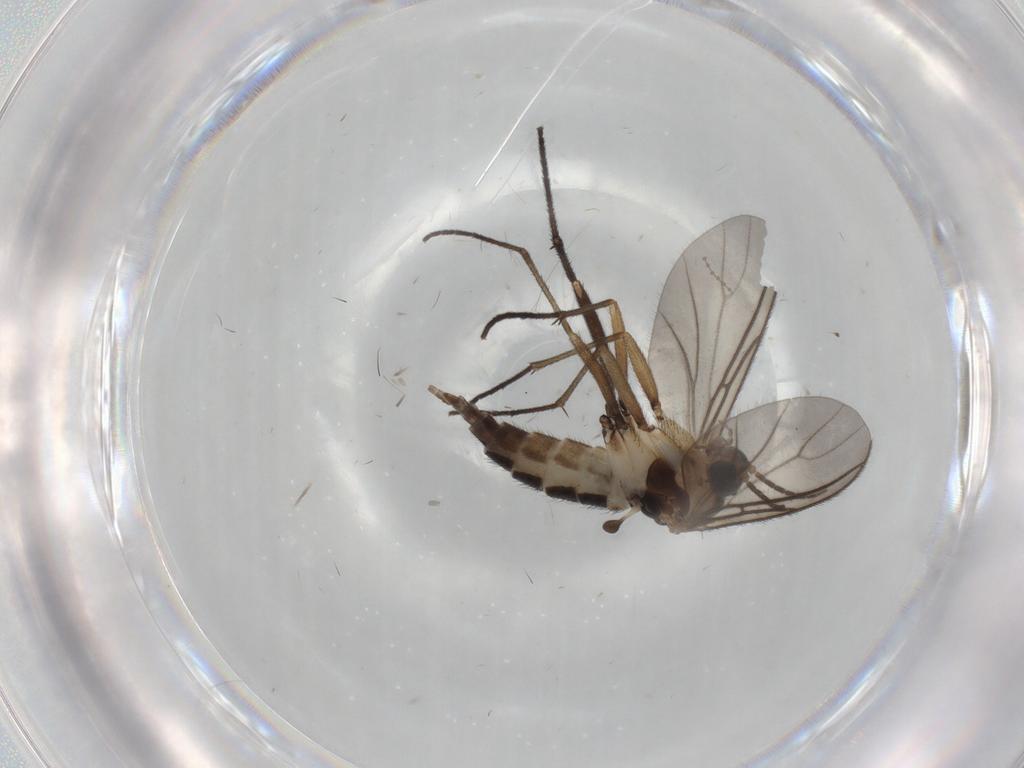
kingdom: Animalia
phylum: Arthropoda
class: Insecta
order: Diptera
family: Sciaridae
